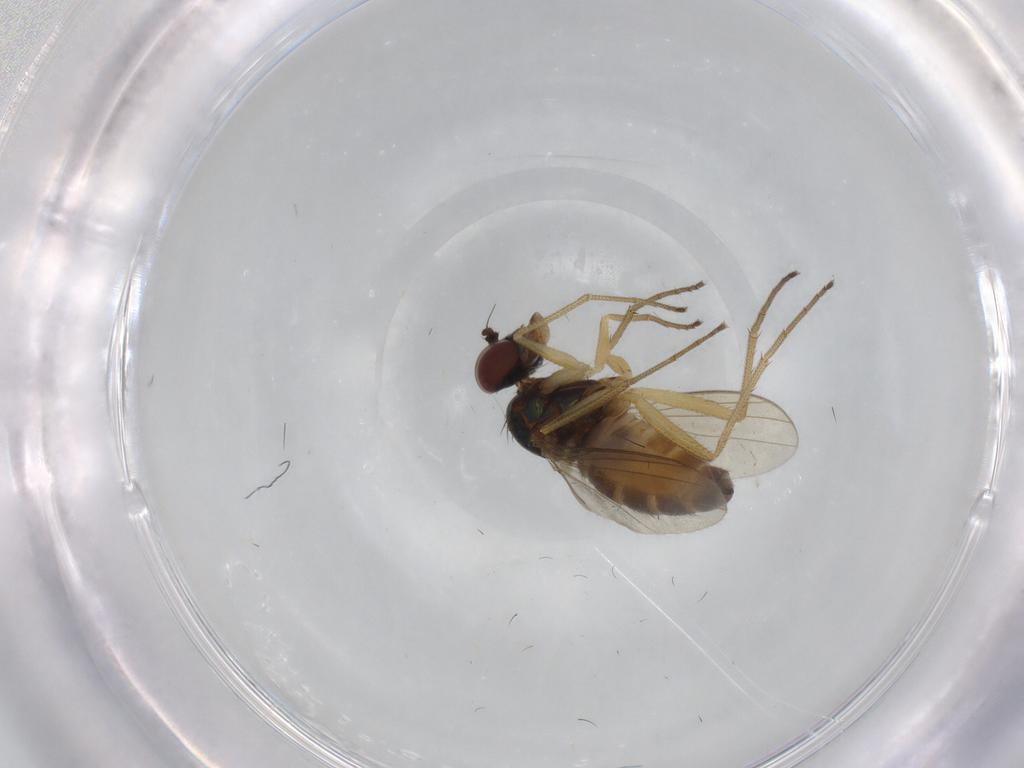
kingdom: Animalia
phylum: Arthropoda
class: Insecta
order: Diptera
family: Dolichopodidae
